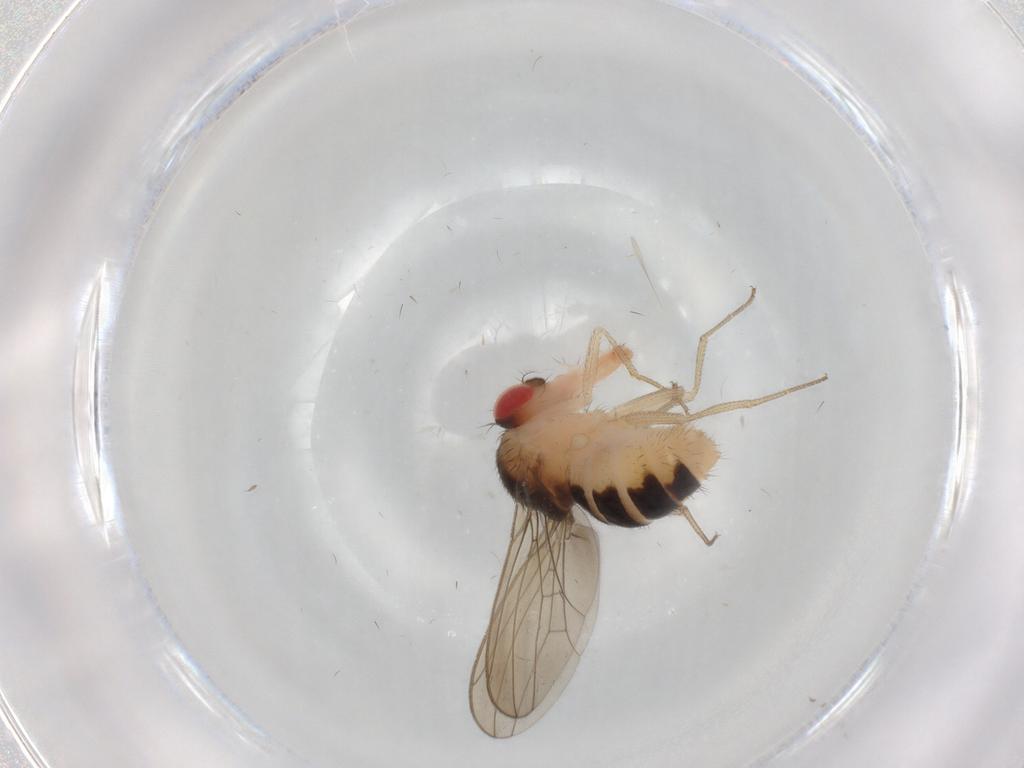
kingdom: Animalia
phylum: Arthropoda
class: Insecta
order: Diptera
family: Drosophilidae
